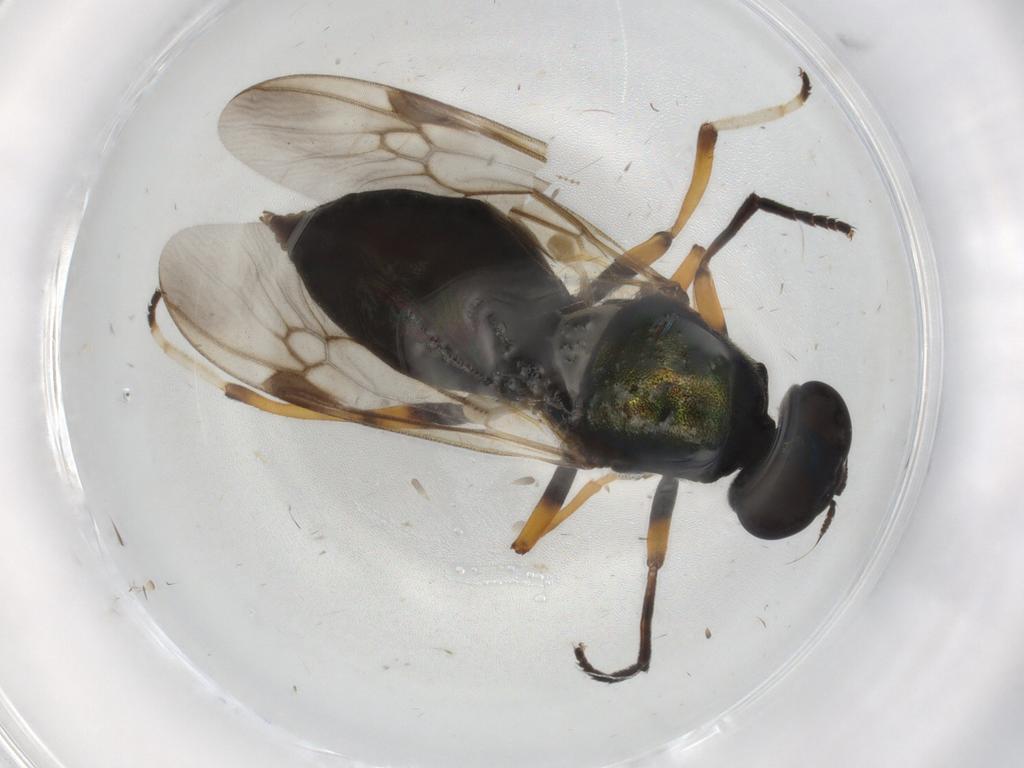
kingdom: Animalia
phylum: Arthropoda
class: Insecta
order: Diptera
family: Stratiomyidae
